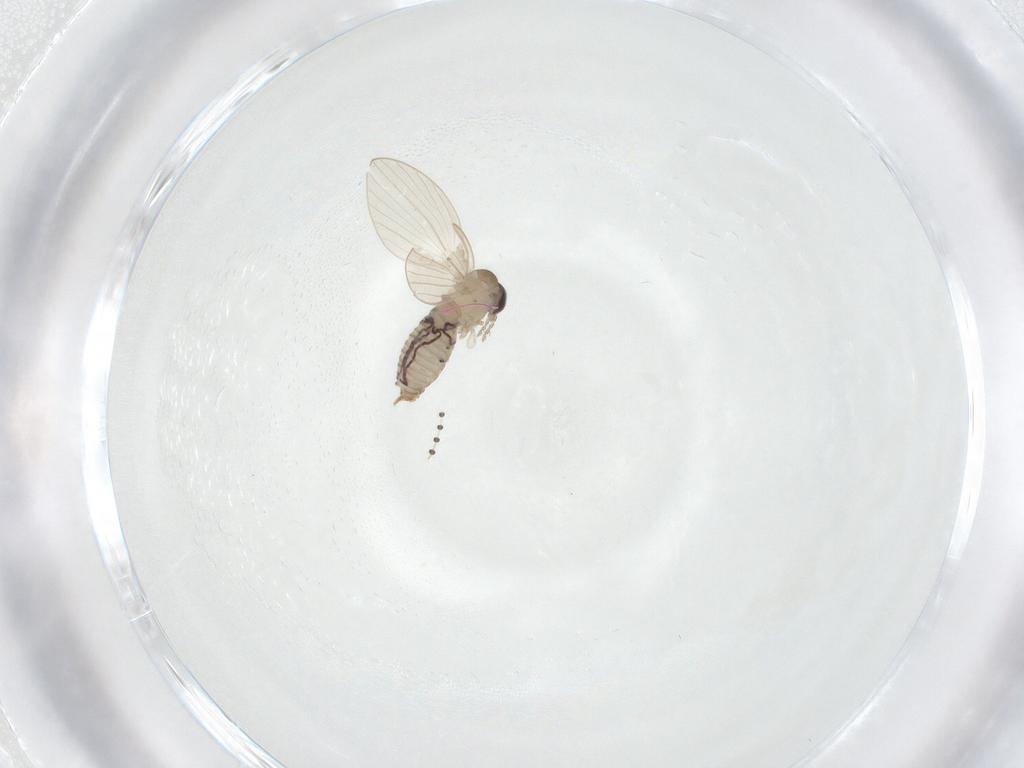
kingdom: Animalia
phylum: Arthropoda
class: Insecta
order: Diptera
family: Psychodidae
